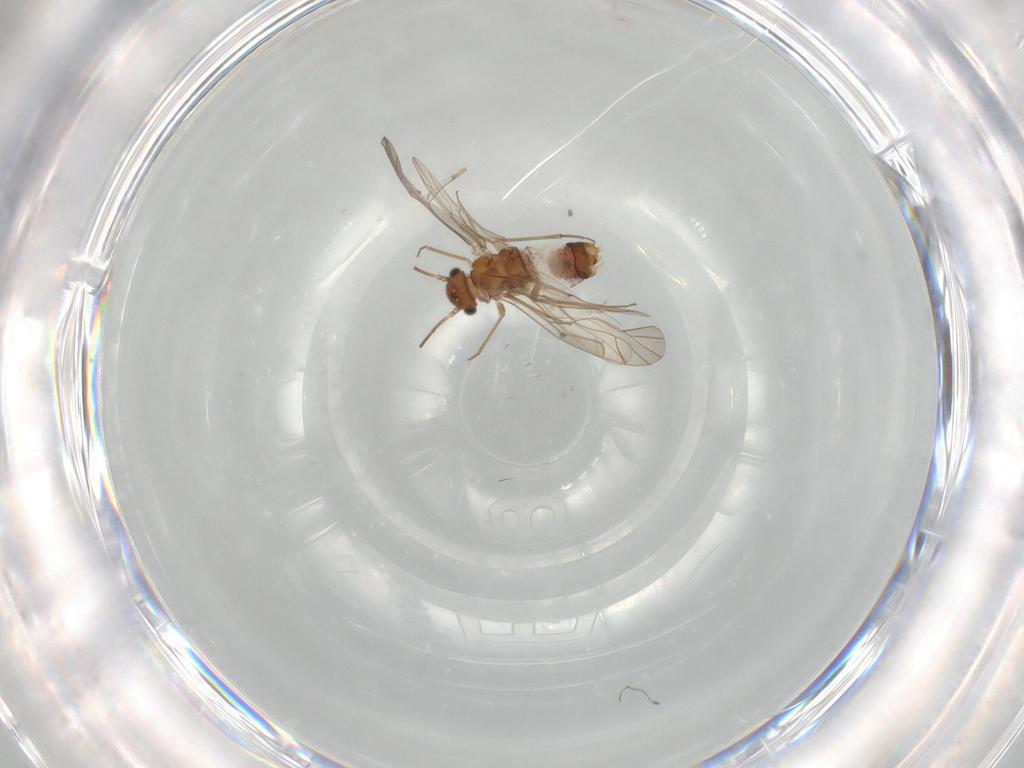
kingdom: Animalia
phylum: Arthropoda
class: Insecta
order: Psocodea
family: Lachesillidae
